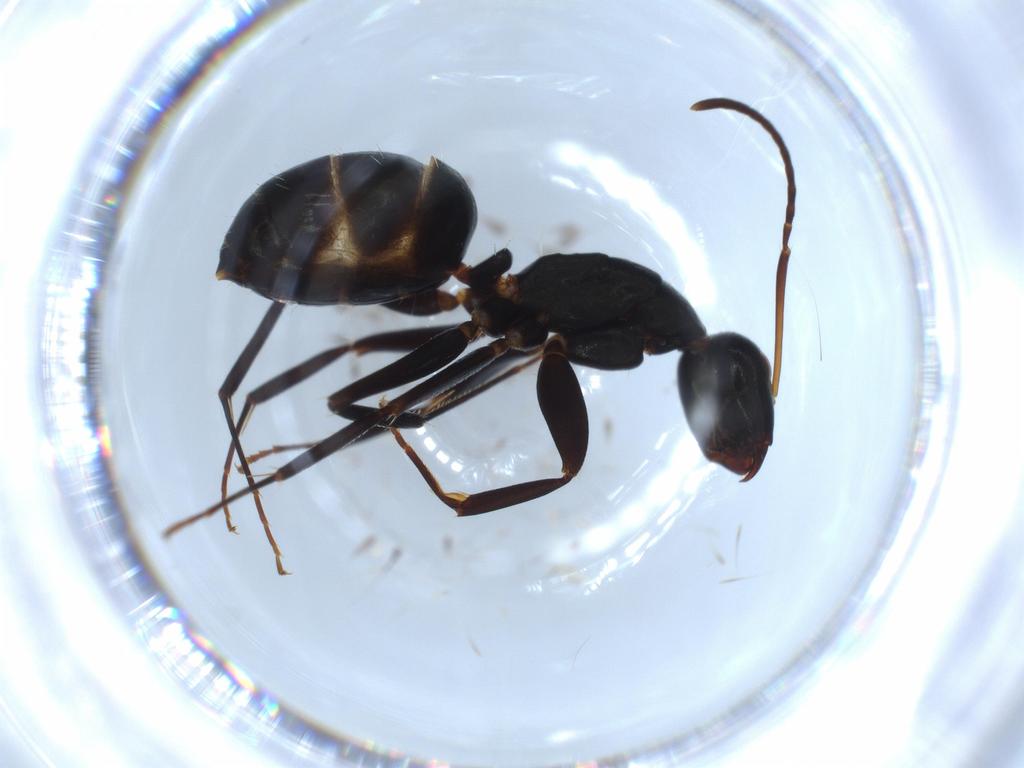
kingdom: Animalia
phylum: Arthropoda
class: Insecta
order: Hymenoptera
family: Formicidae
